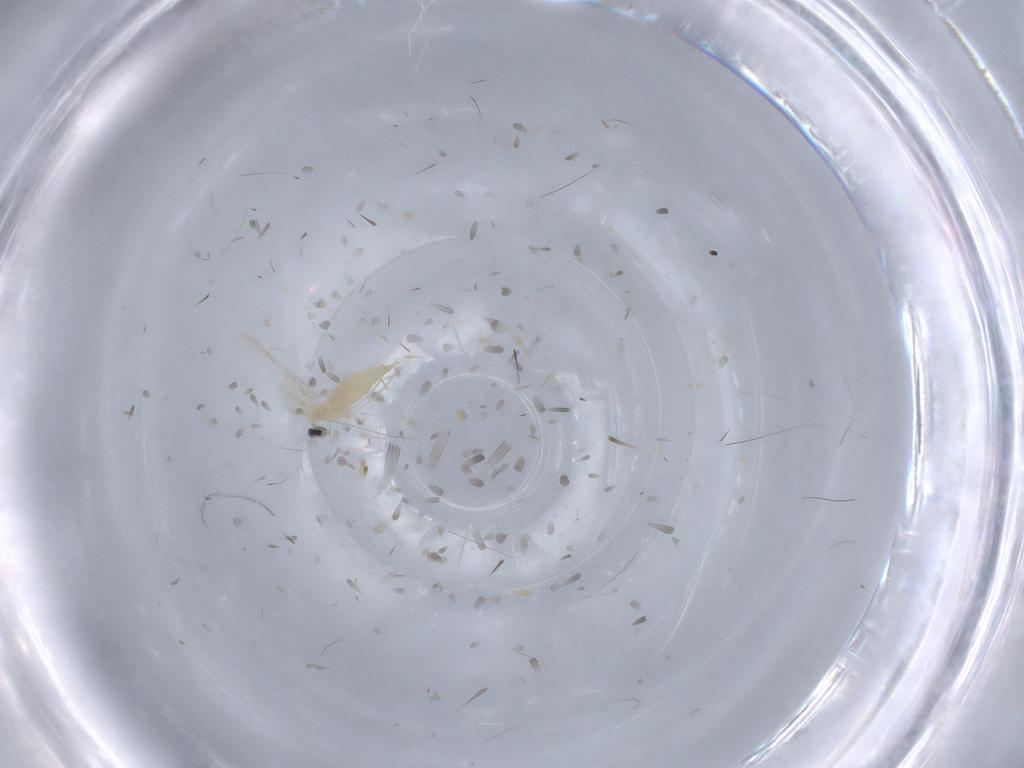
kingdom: Animalia
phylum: Arthropoda
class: Insecta
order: Diptera
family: Cecidomyiidae
